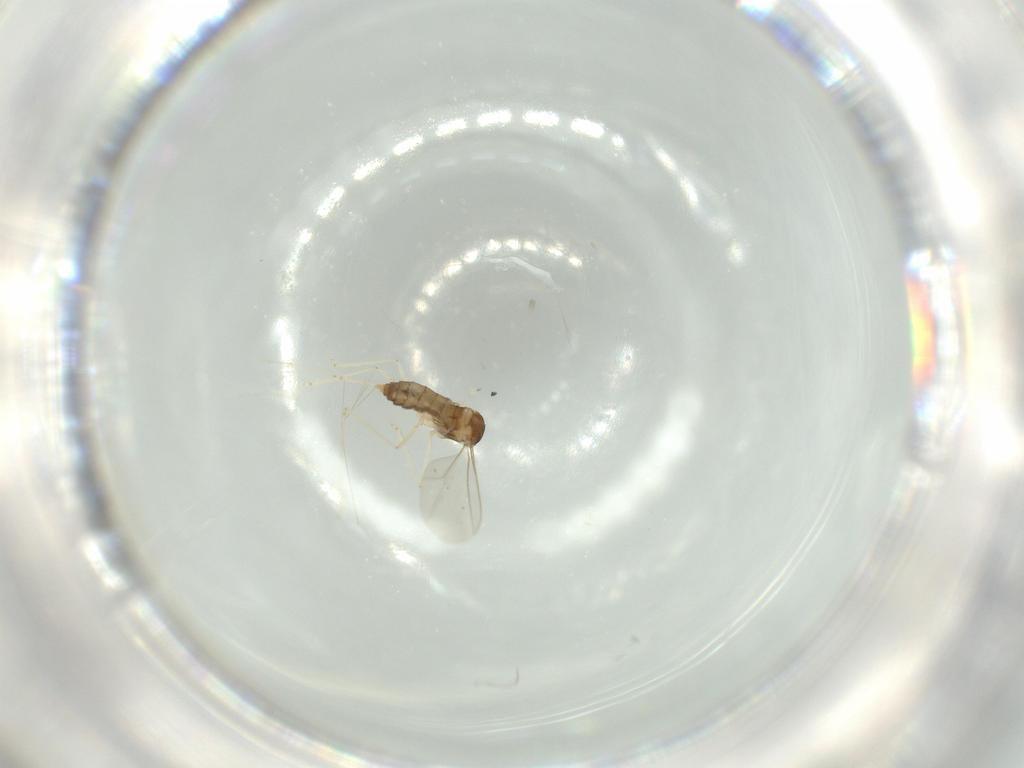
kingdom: Animalia
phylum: Arthropoda
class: Insecta
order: Diptera
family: Cecidomyiidae
